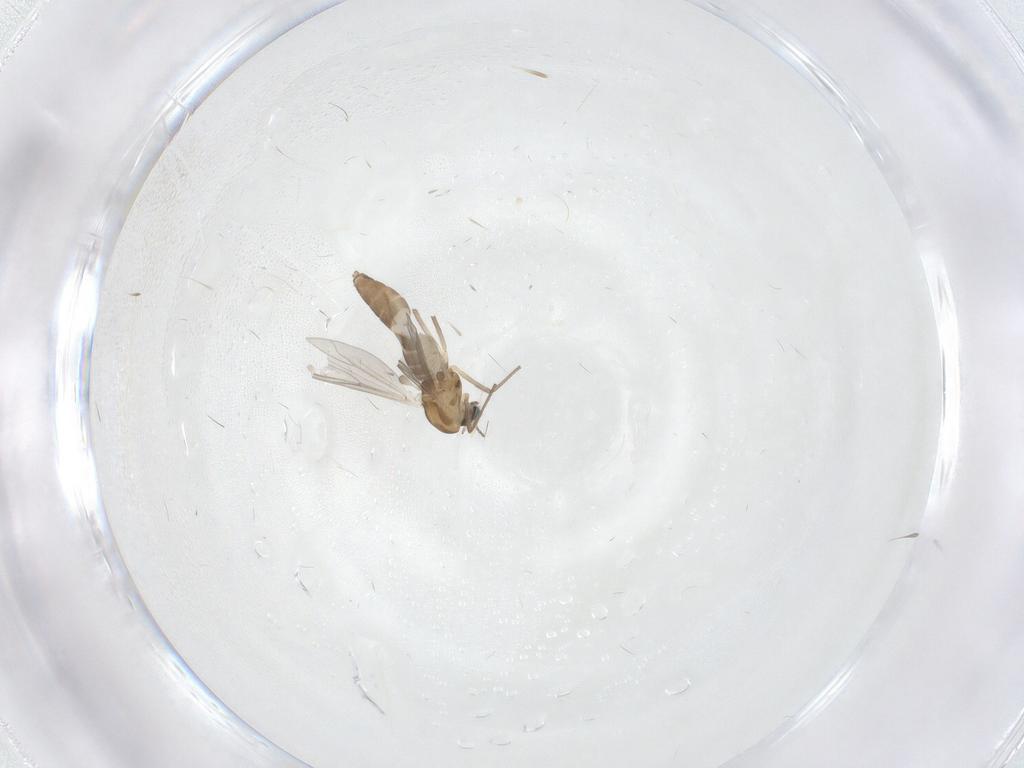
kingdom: Animalia
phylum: Arthropoda
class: Insecta
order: Diptera
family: Chironomidae
